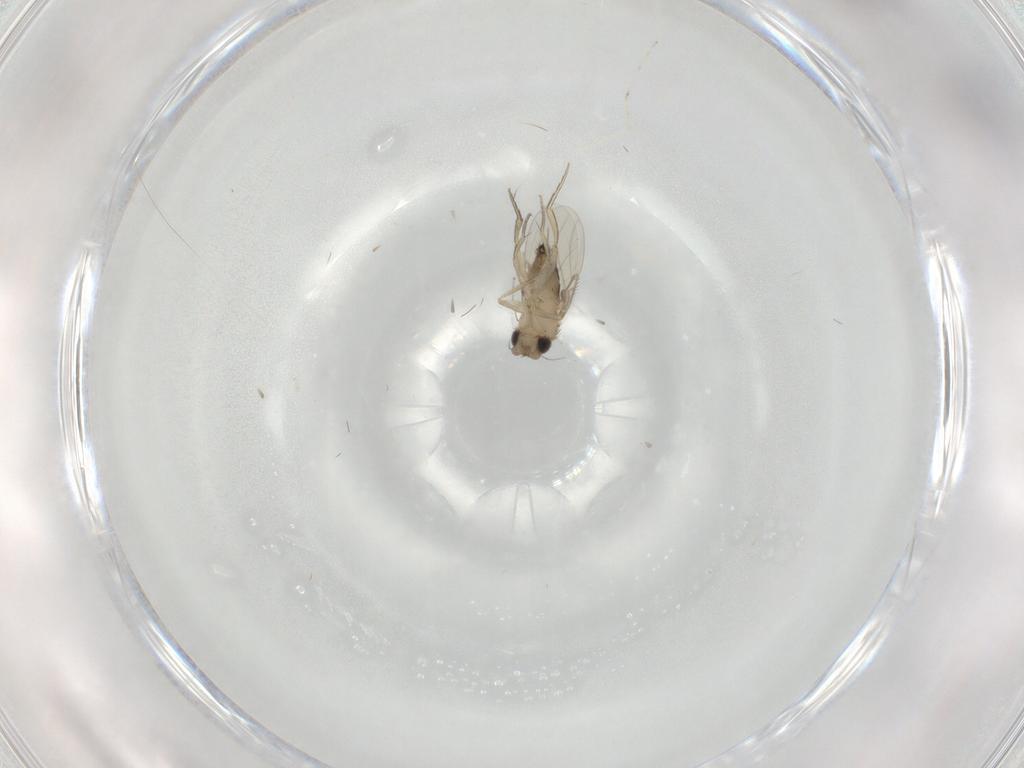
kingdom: Animalia
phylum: Arthropoda
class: Insecta
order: Diptera
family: Phoridae
